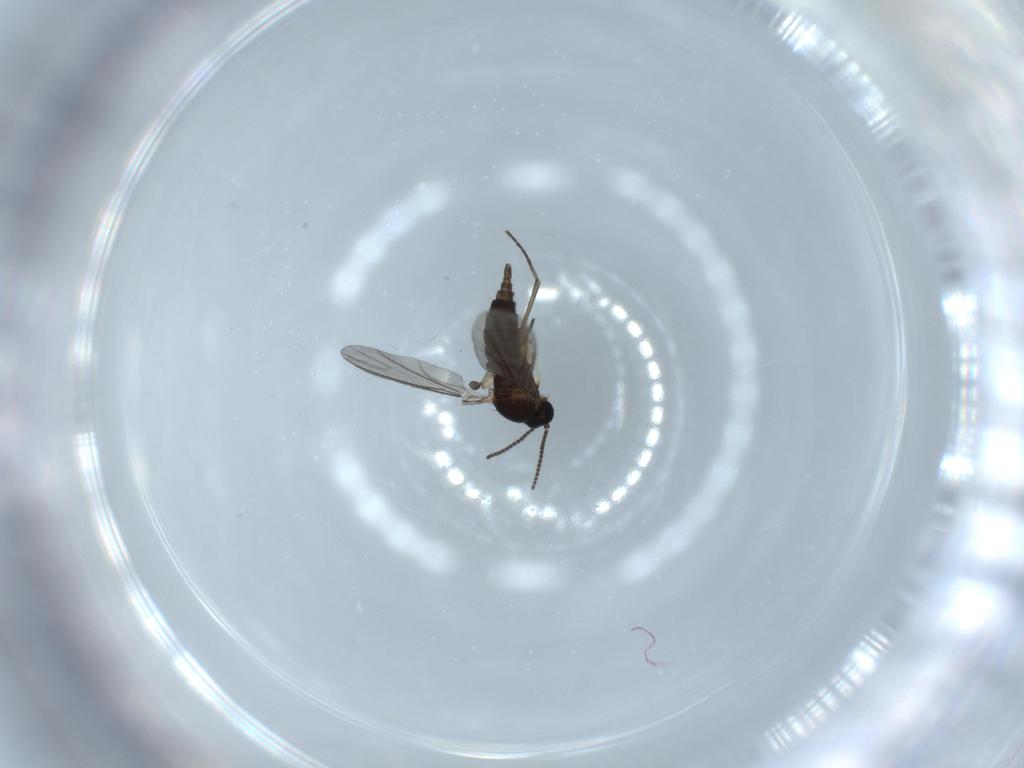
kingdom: Animalia
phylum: Arthropoda
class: Insecta
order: Diptera
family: Sciaridae
